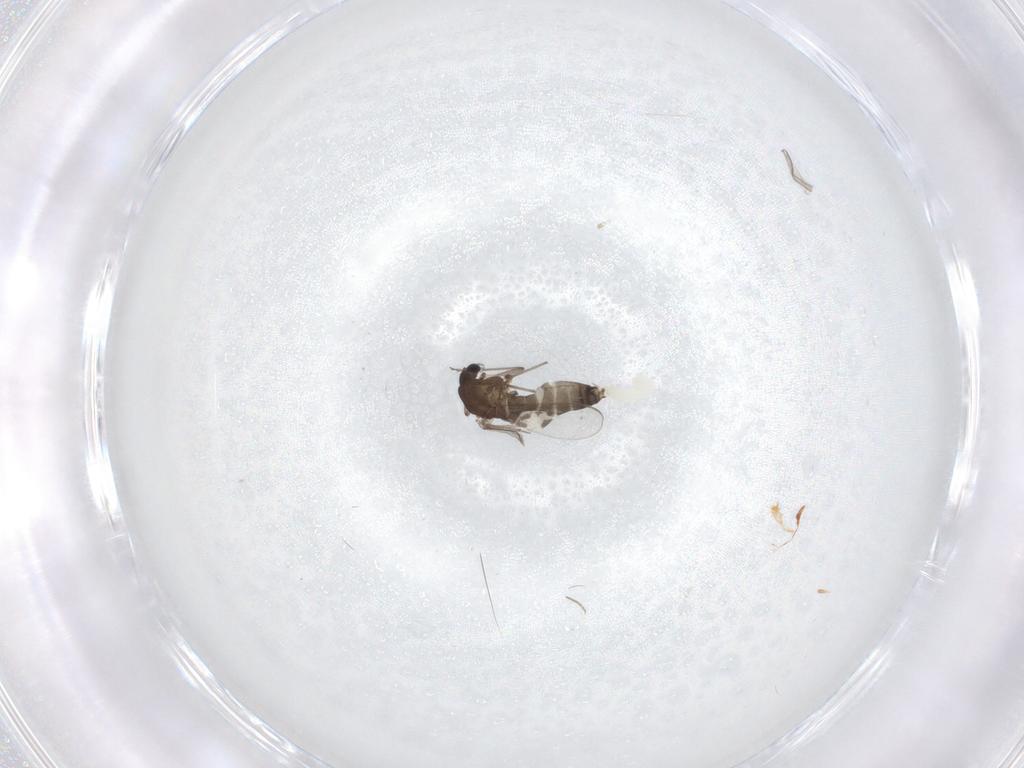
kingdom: Animalia
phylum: Arthropoda
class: Insecta
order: Diptera
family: Chironomidae
